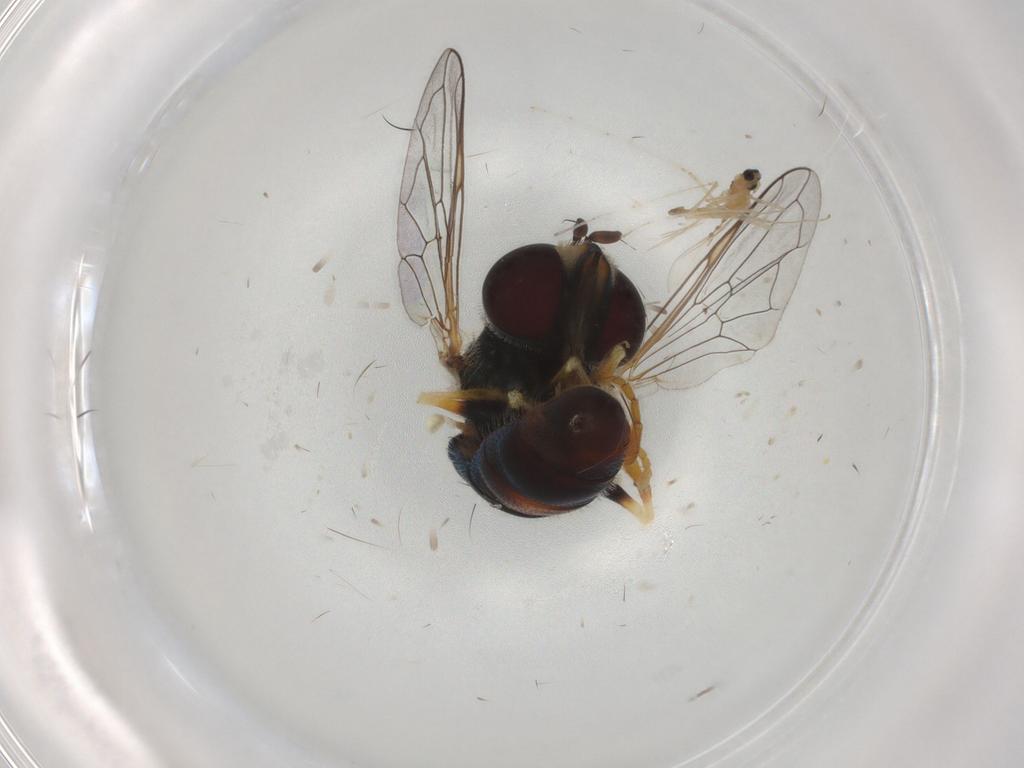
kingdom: Animalia
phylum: Arthropoda
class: Insecta
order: Diptera
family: Syrphidae
